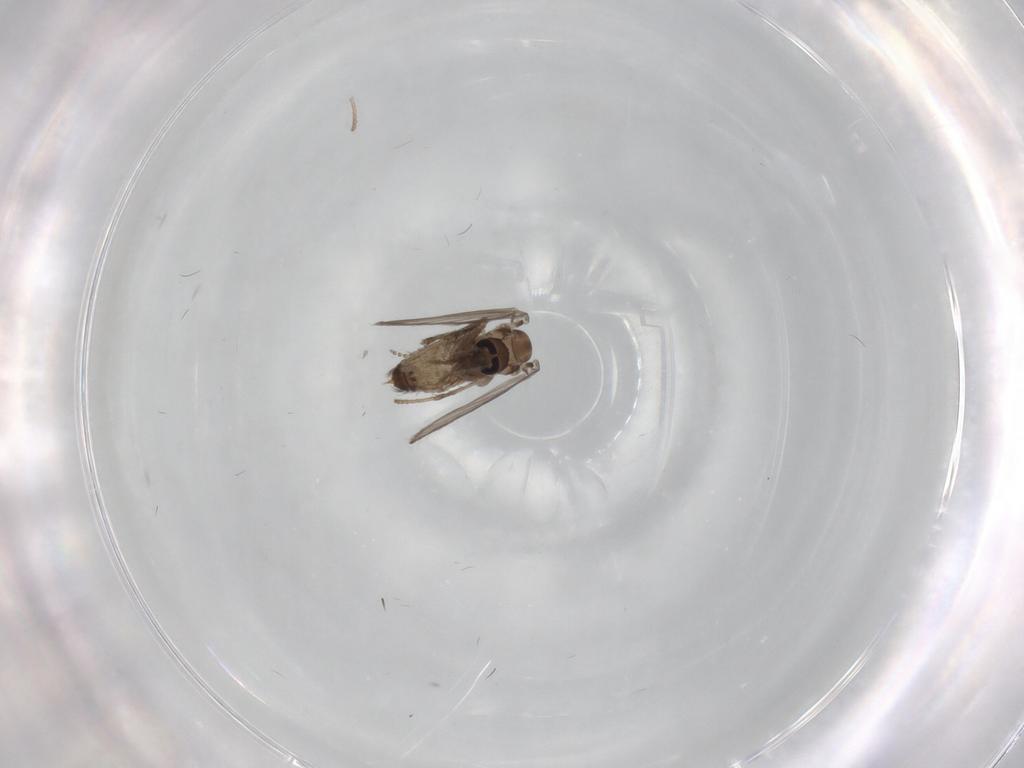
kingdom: Animalia
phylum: Arthropoda
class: Insecta
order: Diptera
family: Psychodidae
